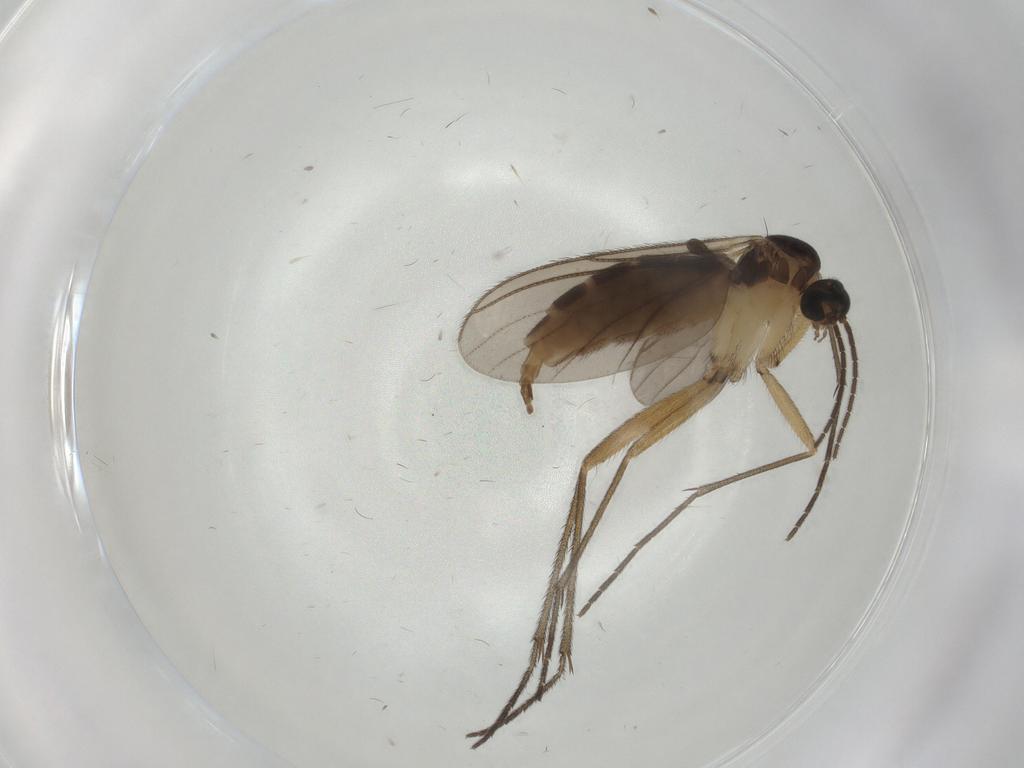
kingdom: Animalia
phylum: Arthropoda
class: Insecta
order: Diptera
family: Sciaridae
